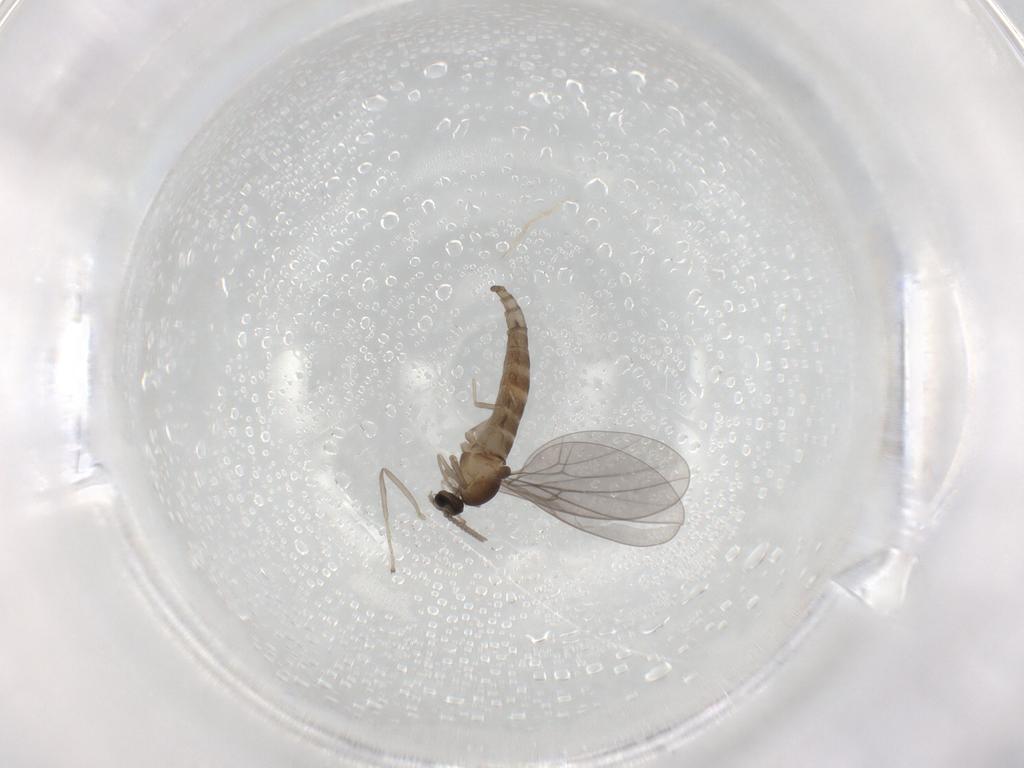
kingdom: Animalia
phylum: Arthropoda
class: Insecta
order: Diptera
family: Cecidomyiidae
